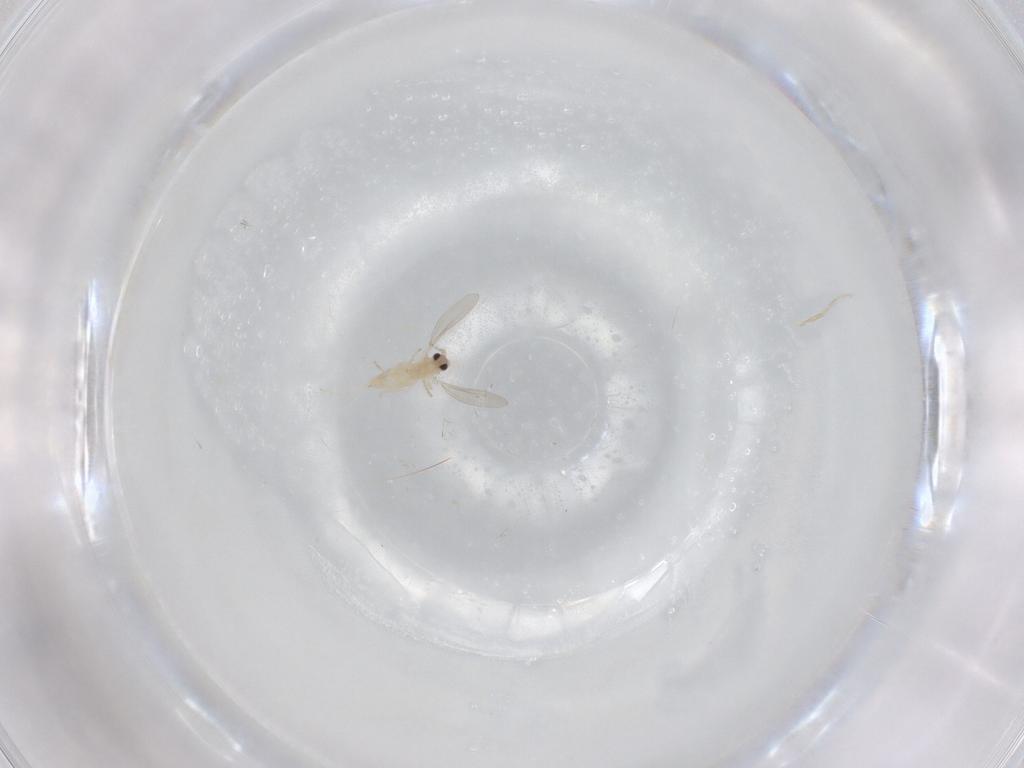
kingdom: Animalia
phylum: Arthropoda
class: Insecta
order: Diptera
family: Cecidomyiidae
